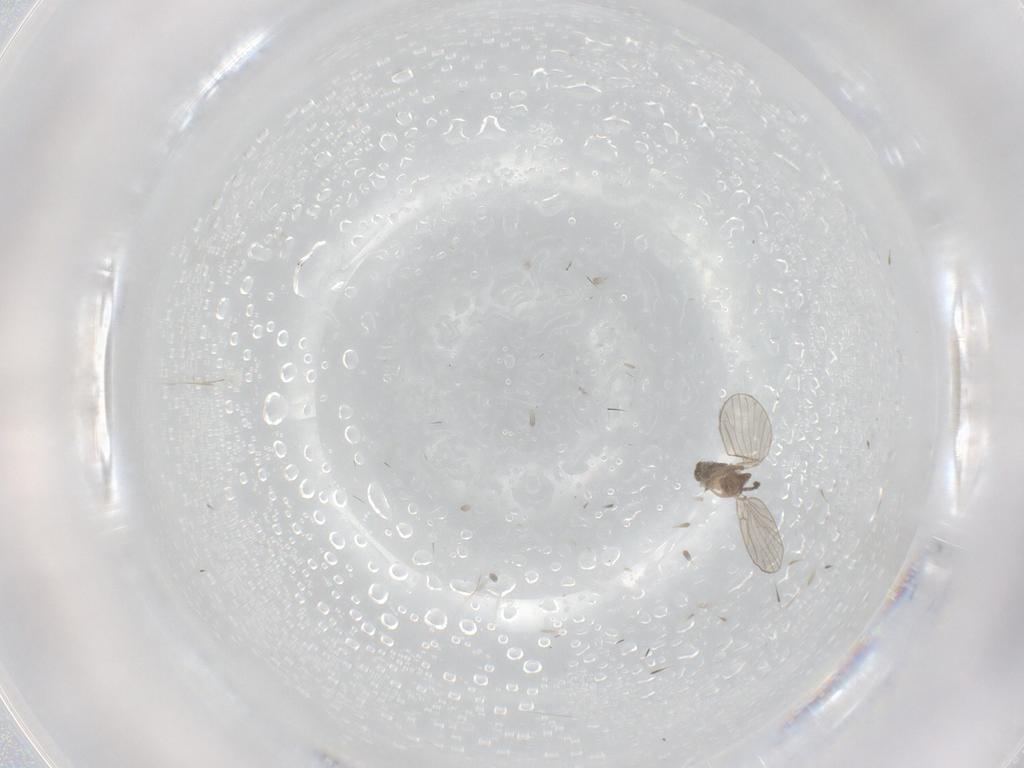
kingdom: Animalia
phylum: Arthropoda
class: Insecta
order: Diptera
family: Ceratopogonidae
